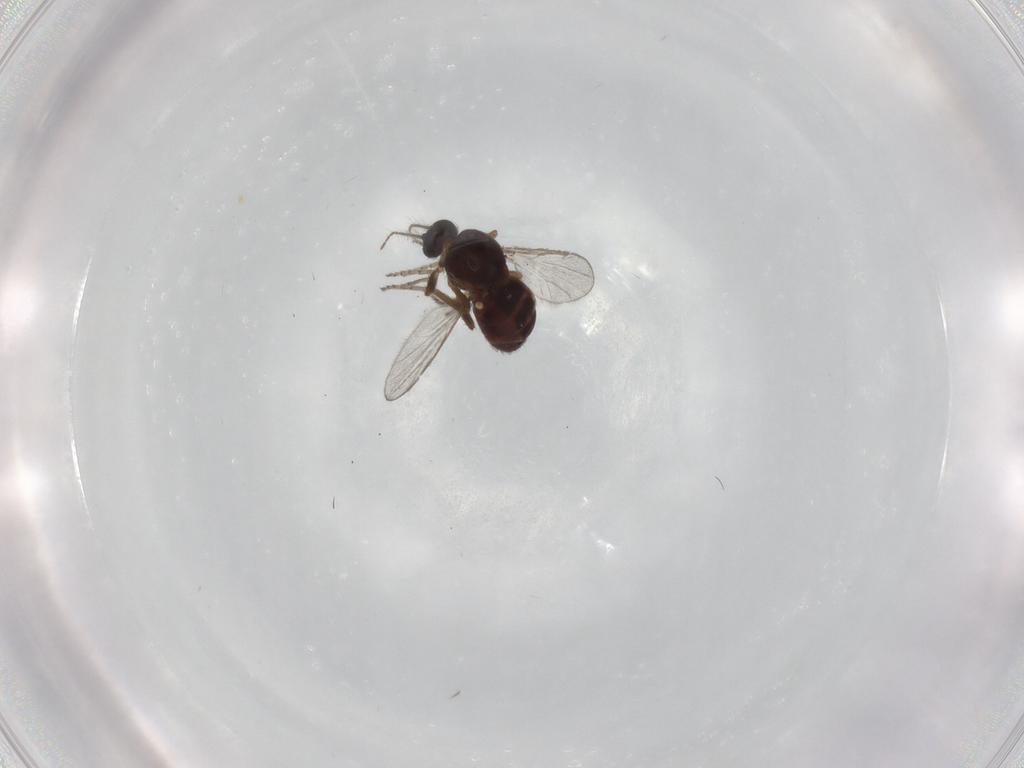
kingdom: Animalia
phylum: Arthropoda
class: Insecta
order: Diptera
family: Ceratopogonidae
